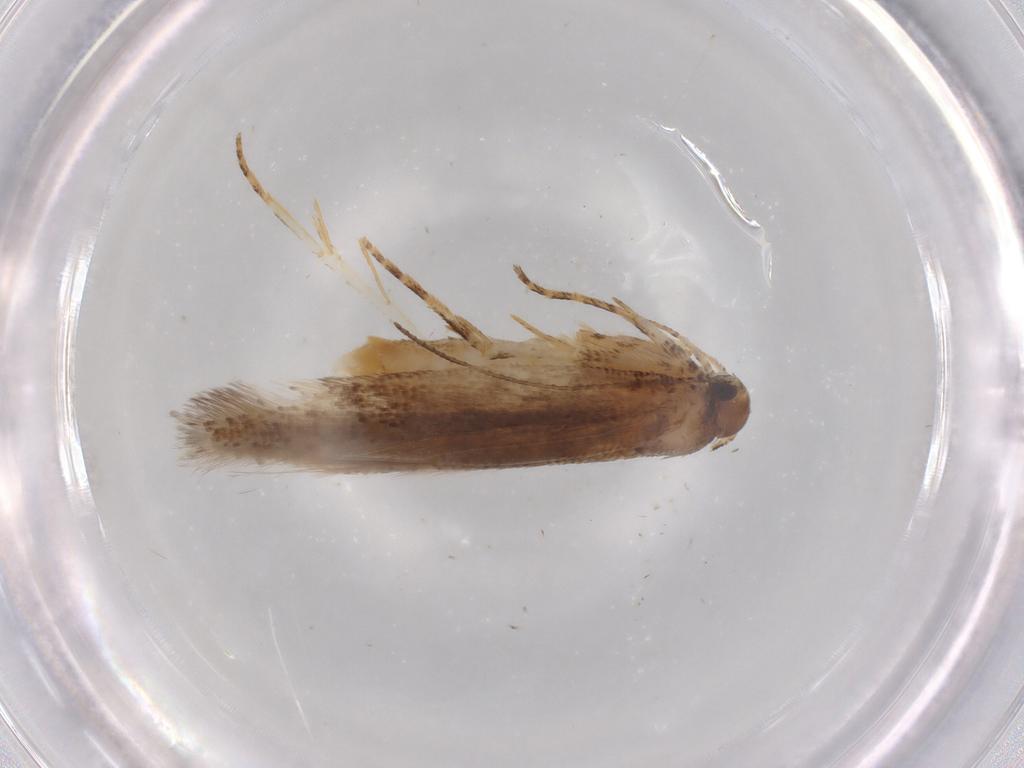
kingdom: Animalia
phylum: Arthropoda
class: Insecta
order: Lepidoptera
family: Gelechiidae
